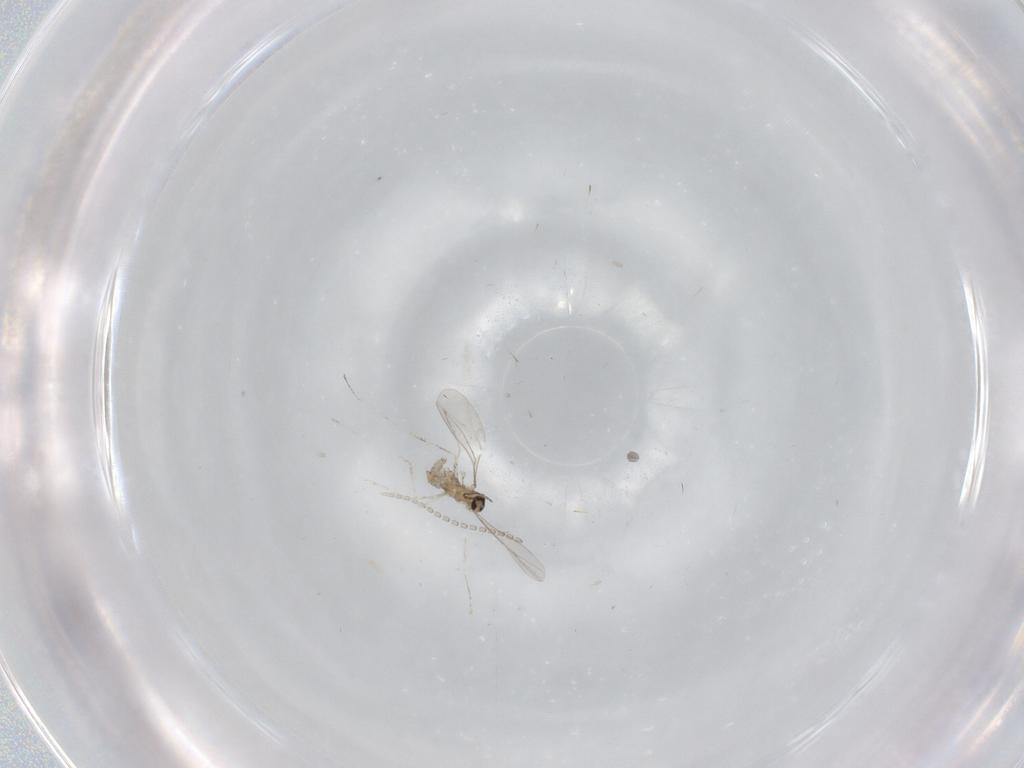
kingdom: Animalia
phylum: Arthropoda
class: Insecta
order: Diptera
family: Cecidomyiidae
